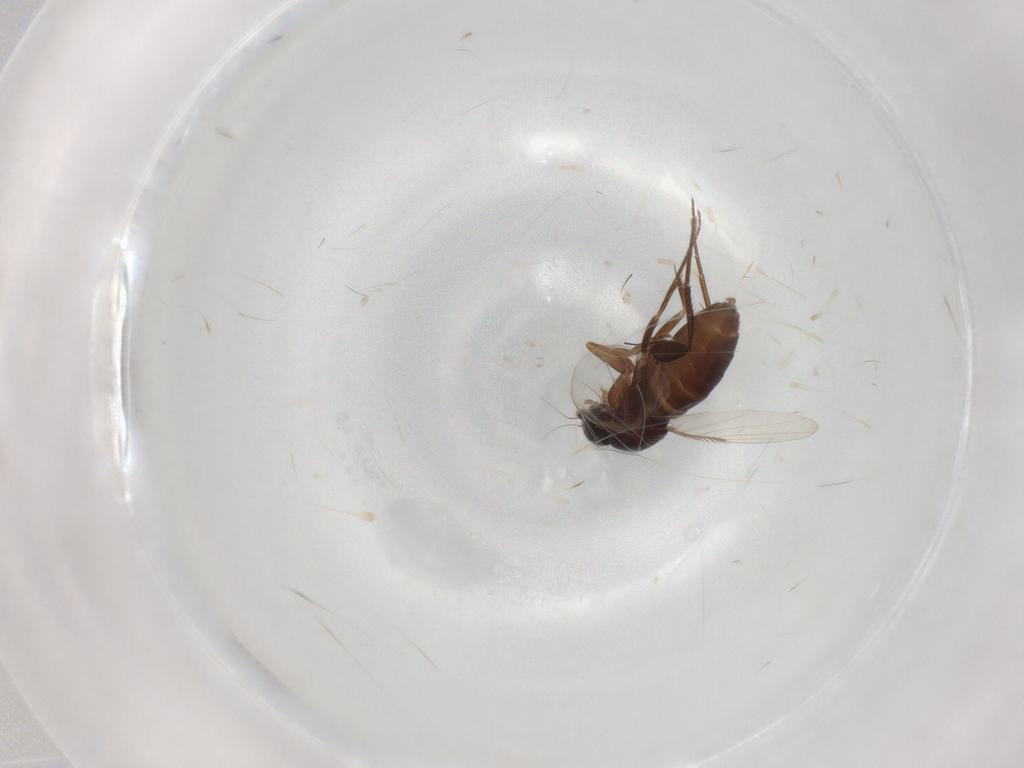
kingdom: Animalia
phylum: Arthropoda
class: Insecta
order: Diptera
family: Phoridae
